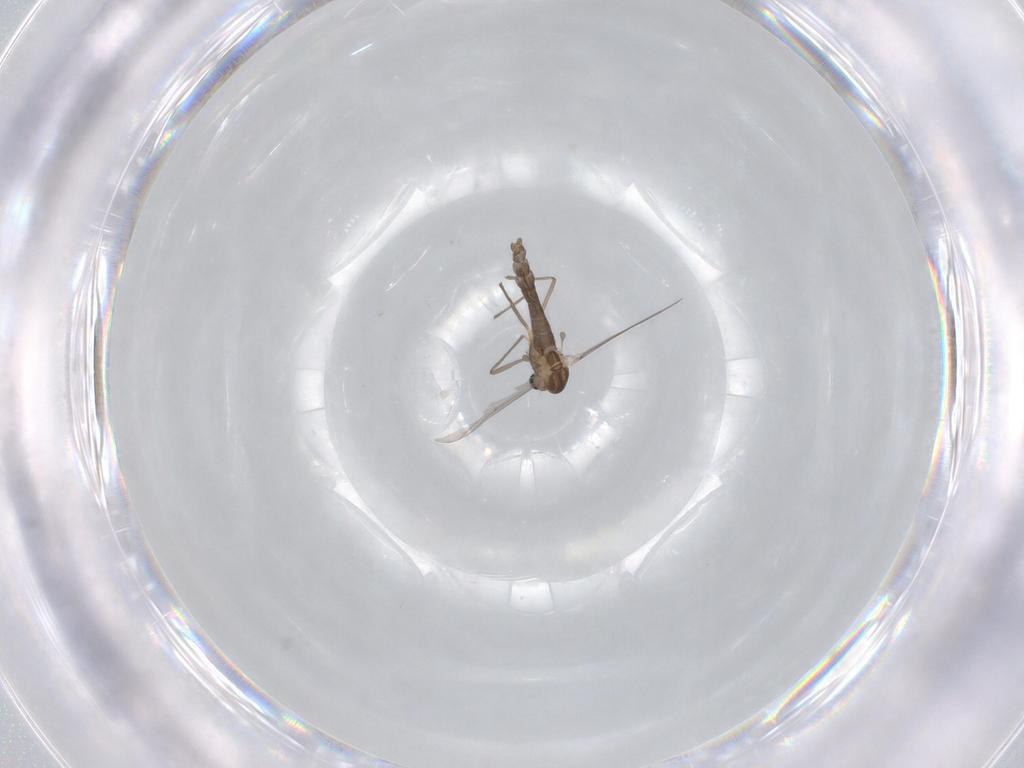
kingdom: Animalia
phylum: Arthropoda
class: Insecta
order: Diptera
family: Chironomidae
